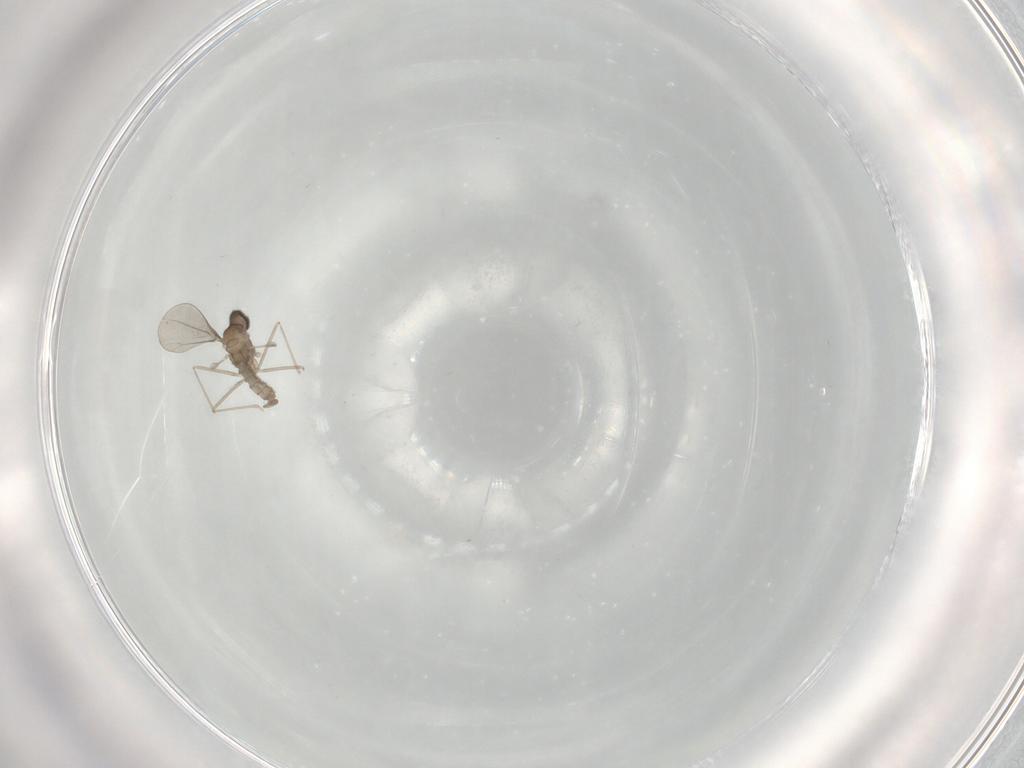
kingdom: Animalia
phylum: Arthropoda
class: Insecta
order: Diptera
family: Cecidomyiidae
